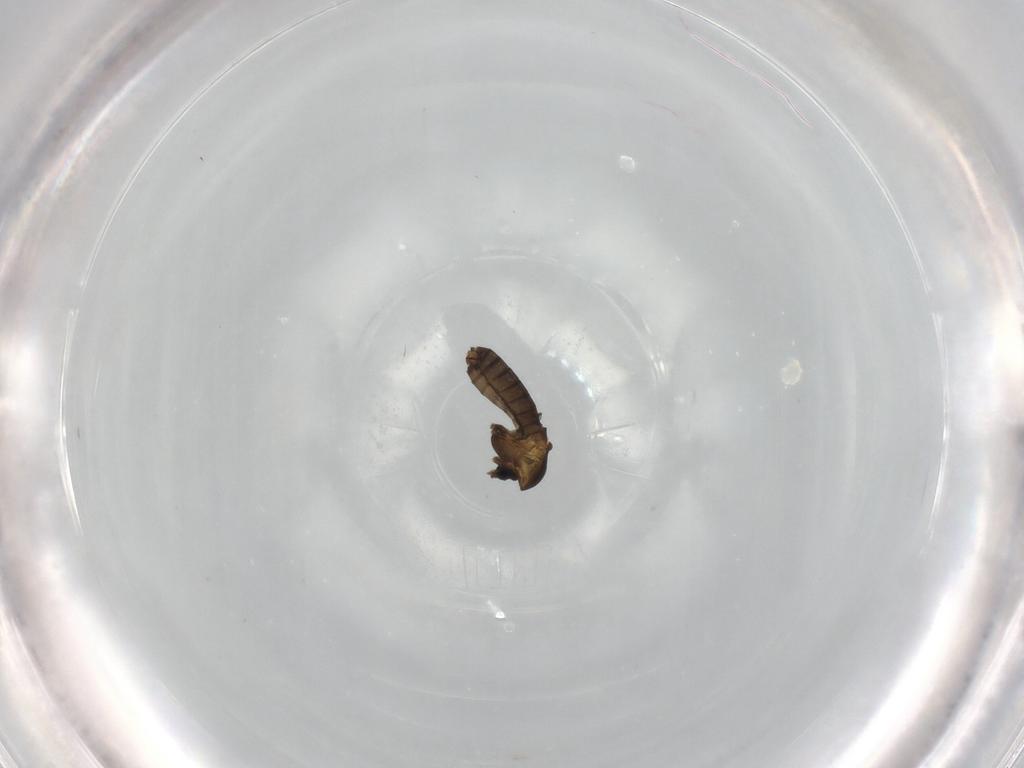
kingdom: Animalia
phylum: Arthropoda
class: Insecta
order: Diptera
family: Chironomidae
